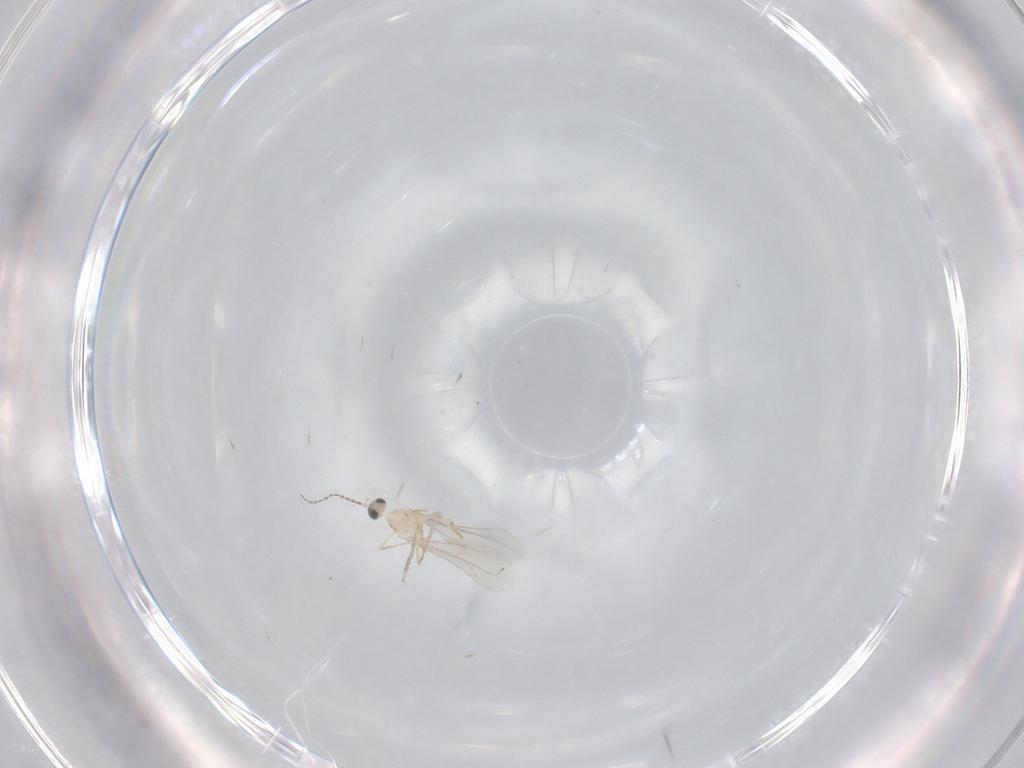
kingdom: Animalia
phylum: Arthropoda
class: Insecta
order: Diptera
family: Cecidomyiidae
